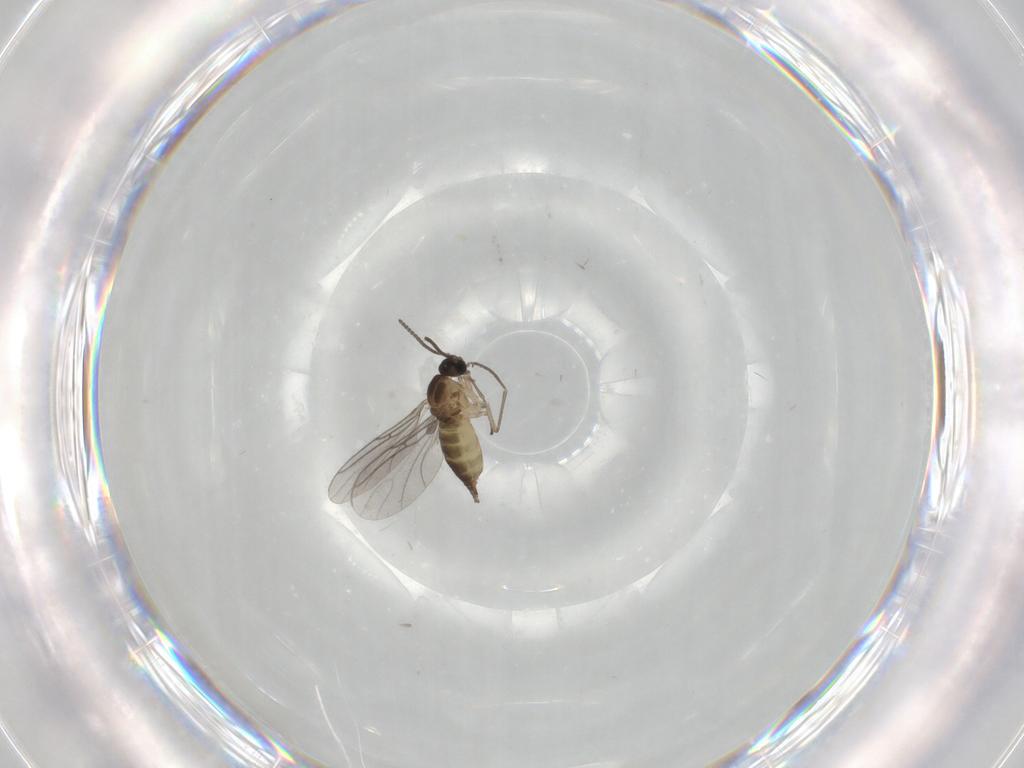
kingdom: Animalia
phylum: Arthropoda
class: Insecta
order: Diptera
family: Sciaridae
